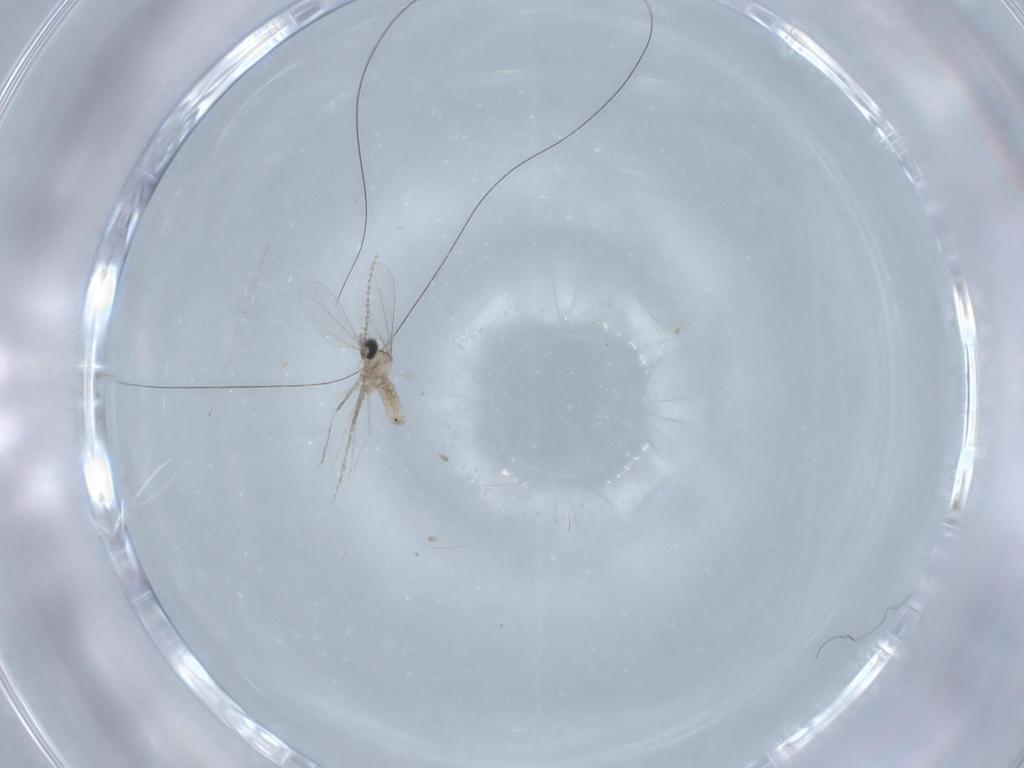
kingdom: Animalia
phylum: Arthropoda
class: Insecta
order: Diptera
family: Cecidomyiidae
